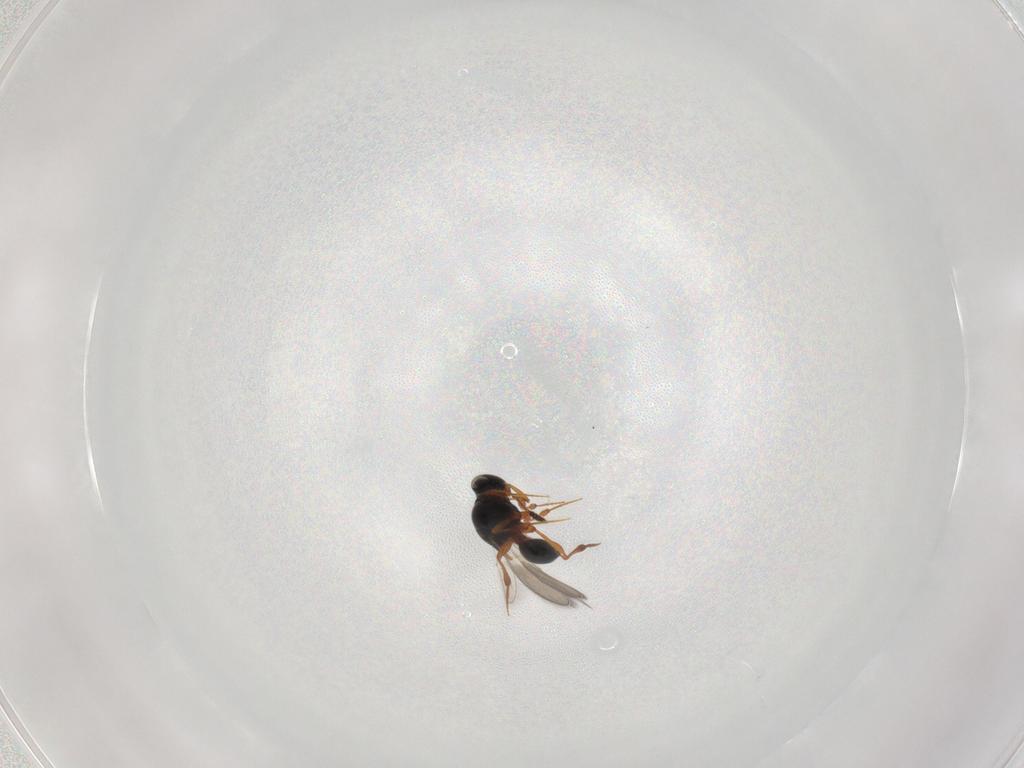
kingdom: Animalia
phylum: Arthropoda
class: Insecta
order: Hymenoptera
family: Platygastridae
